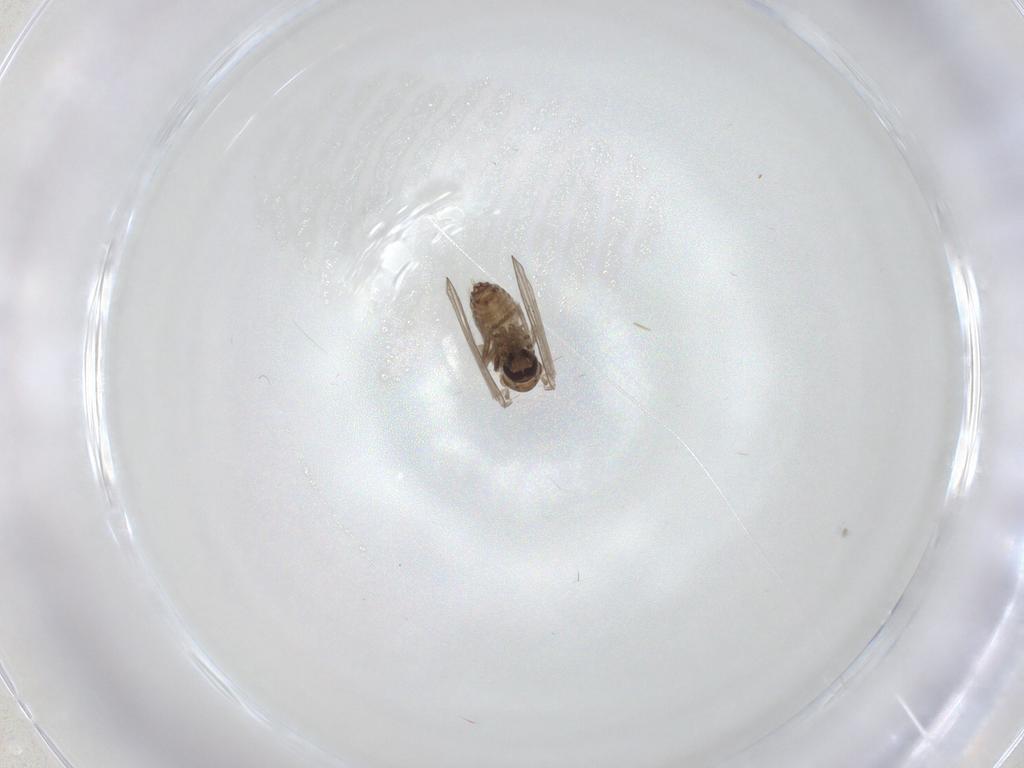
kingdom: Animalia
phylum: Arthropoda
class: Insecta
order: Diptera
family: Psychodidae
